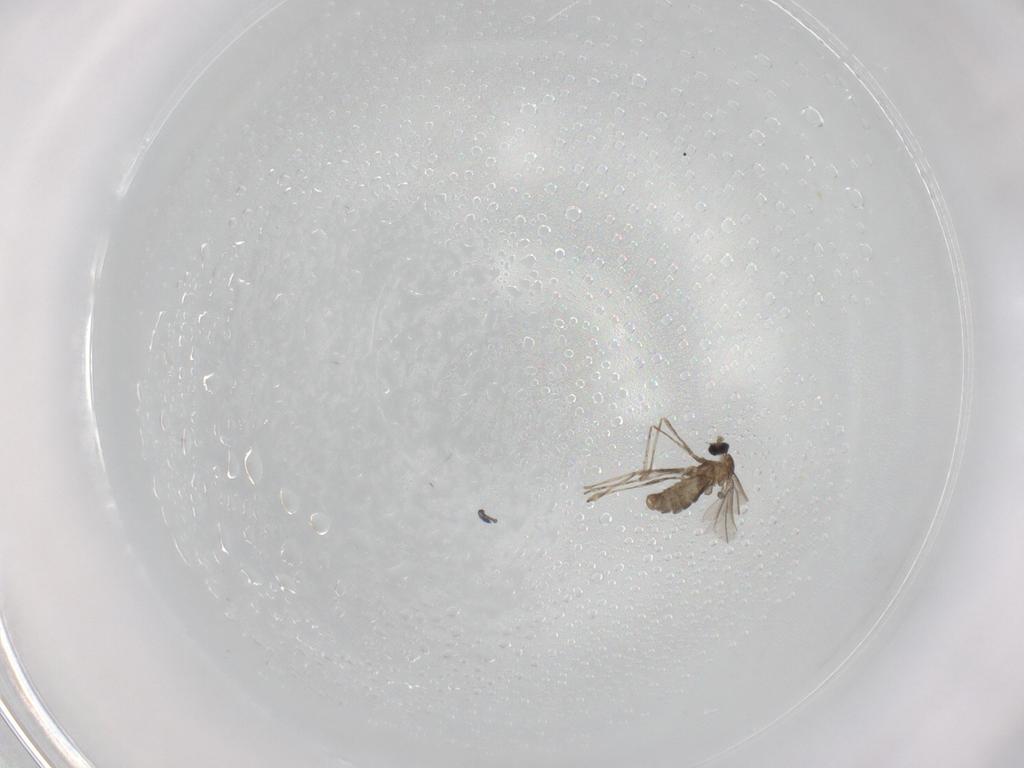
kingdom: Animalia
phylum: Arthropoda
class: Insecta
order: Diptera
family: Cecidomyiidae
